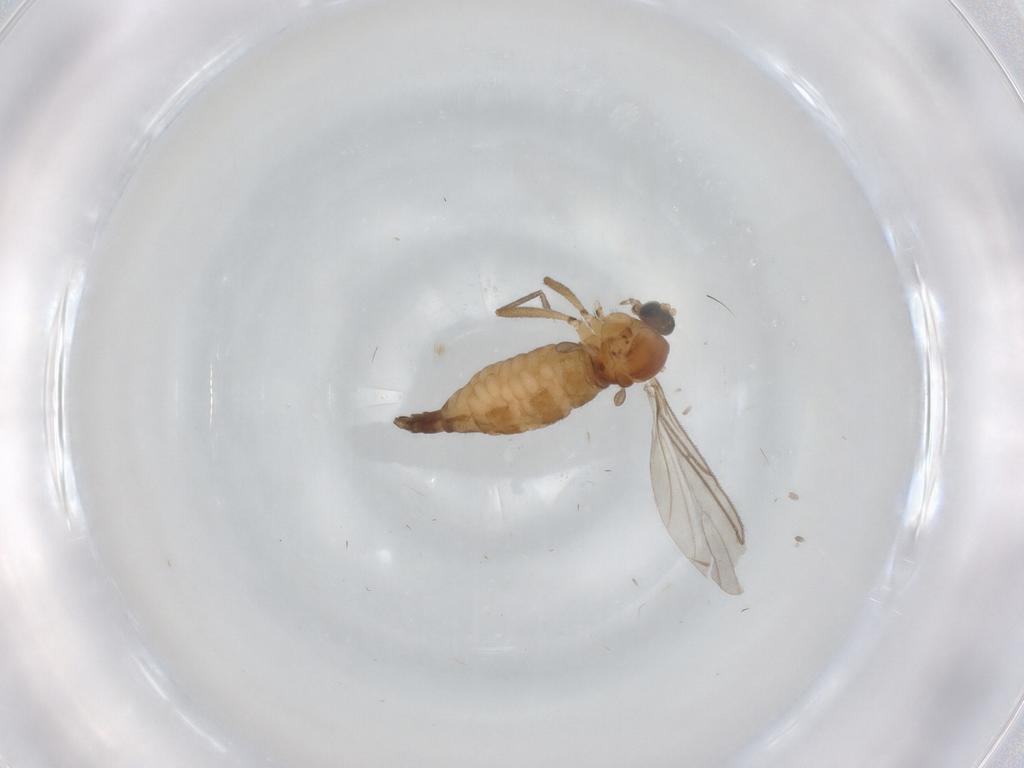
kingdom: Animalia
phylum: Arthropoda
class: Insecta
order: Diptera
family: Sciaridae
